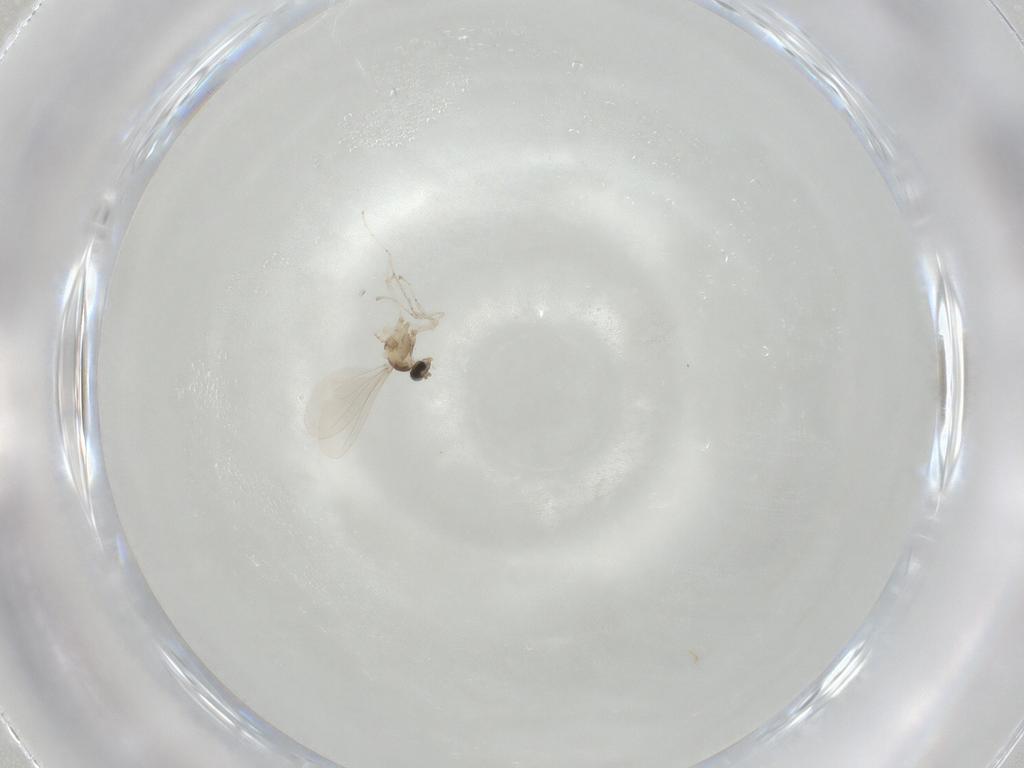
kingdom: Animalia
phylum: Arthropoda
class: Insecta
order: Diptera
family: Cecidomyiidae
